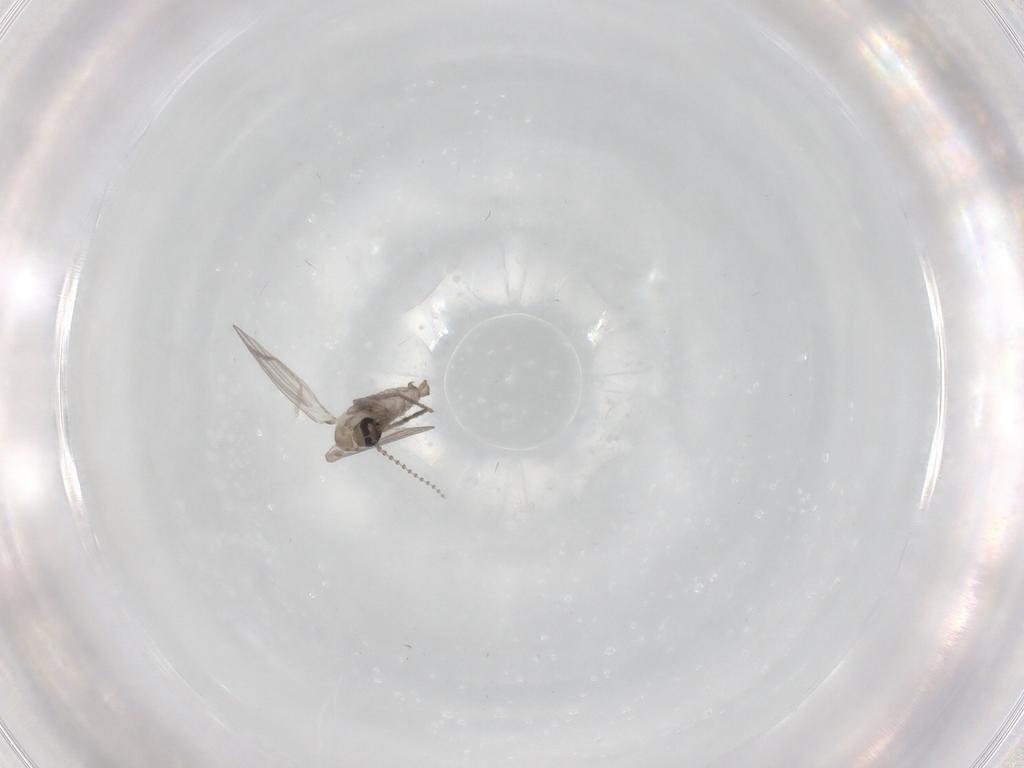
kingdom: Animalia
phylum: Arthropoda
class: Insecta
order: Diptera
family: Psychodidae
